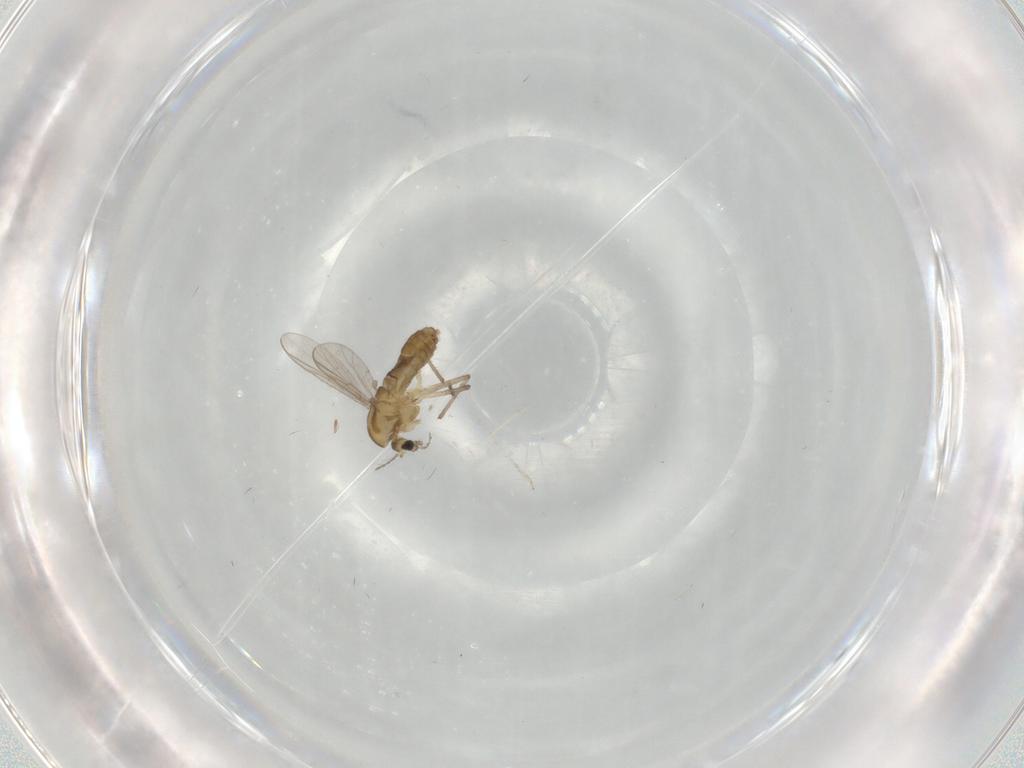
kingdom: Animalia
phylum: Arthropoda
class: Insecta
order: Diptera
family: Chironomidae
